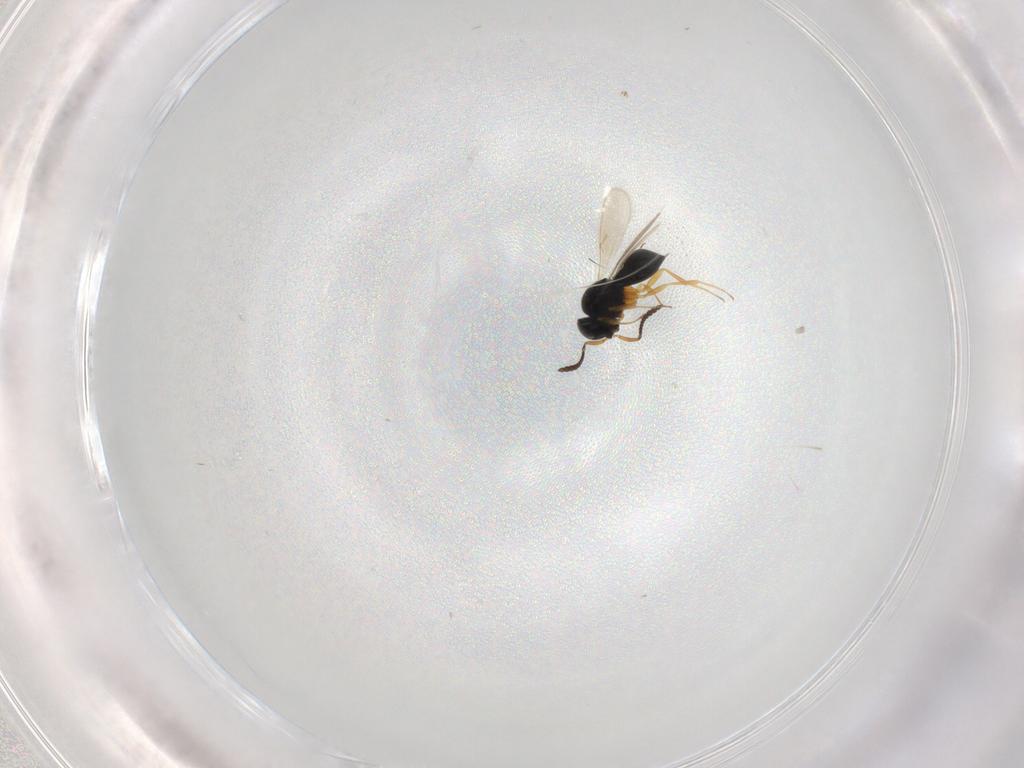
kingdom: Animalia
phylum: Arthropoda
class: Insecta
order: Hymenoptera
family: Scelionidae
